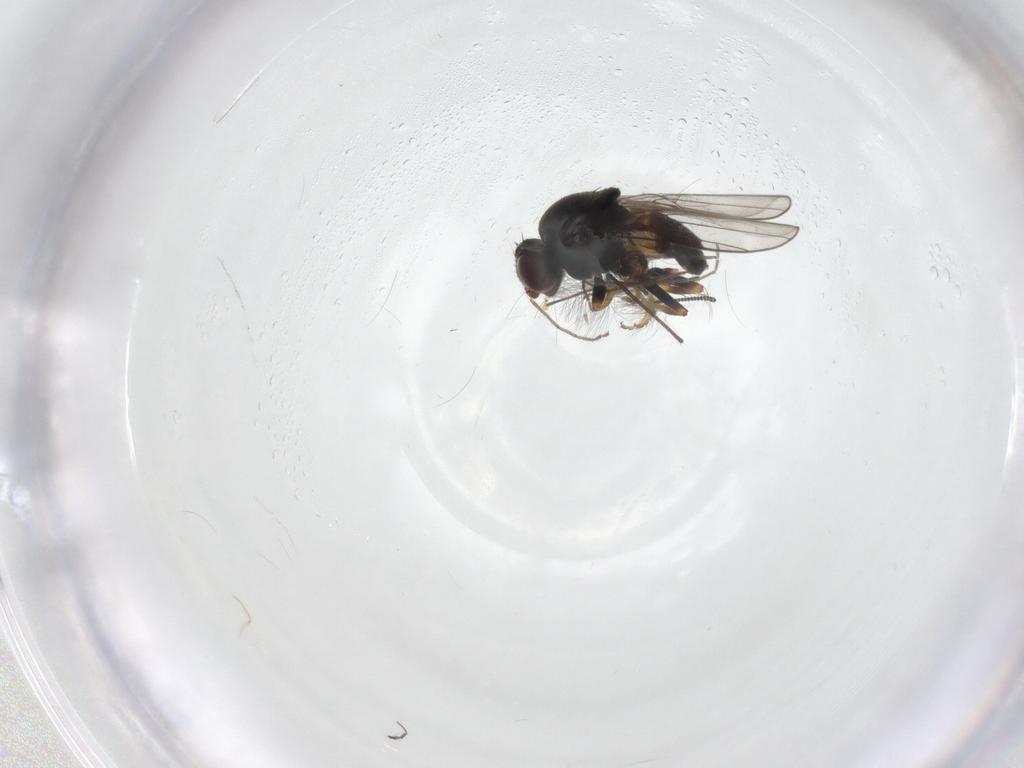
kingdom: Animalia
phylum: Arthropoda
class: Insecta
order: Diptera
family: Chloropidae
